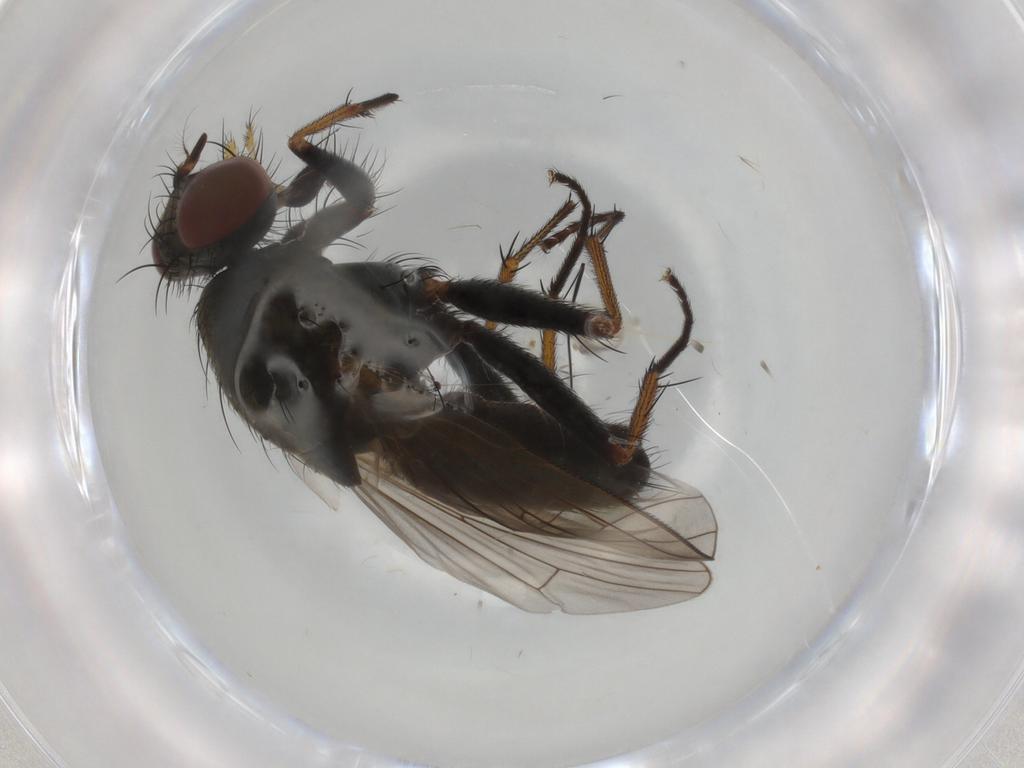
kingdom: Animalia
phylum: Arthropoda
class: Insecta
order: Diptera
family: Muscidae
